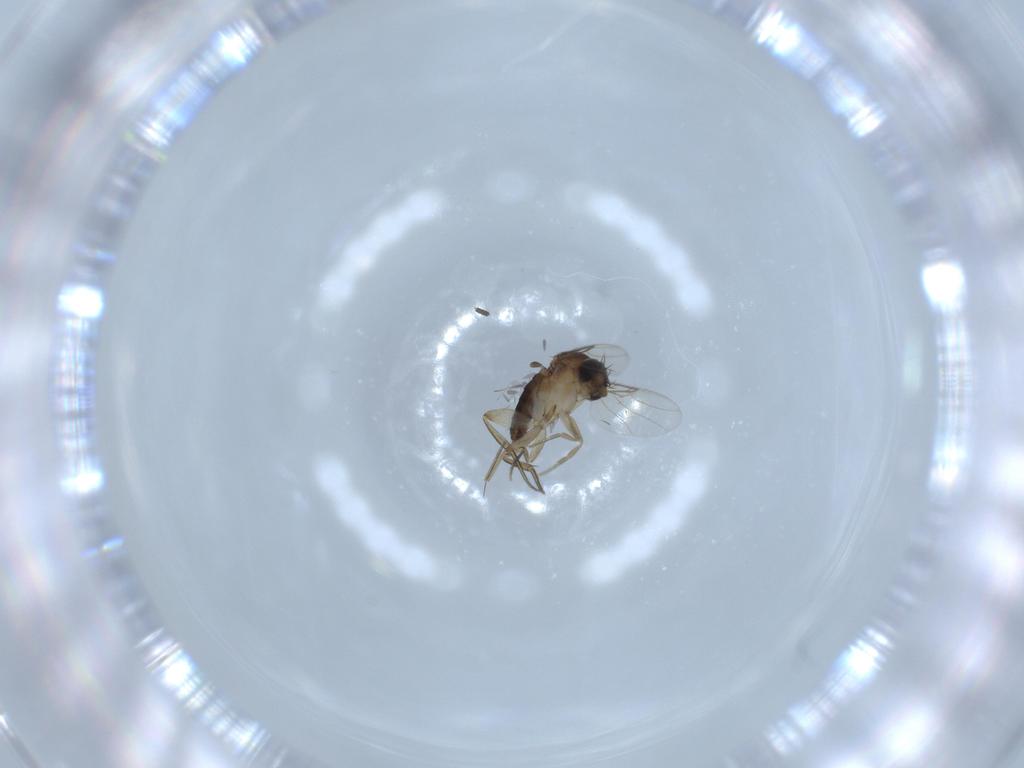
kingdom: Animalia
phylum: Arthropoda
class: Insecta
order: Diptera
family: Phoridae
